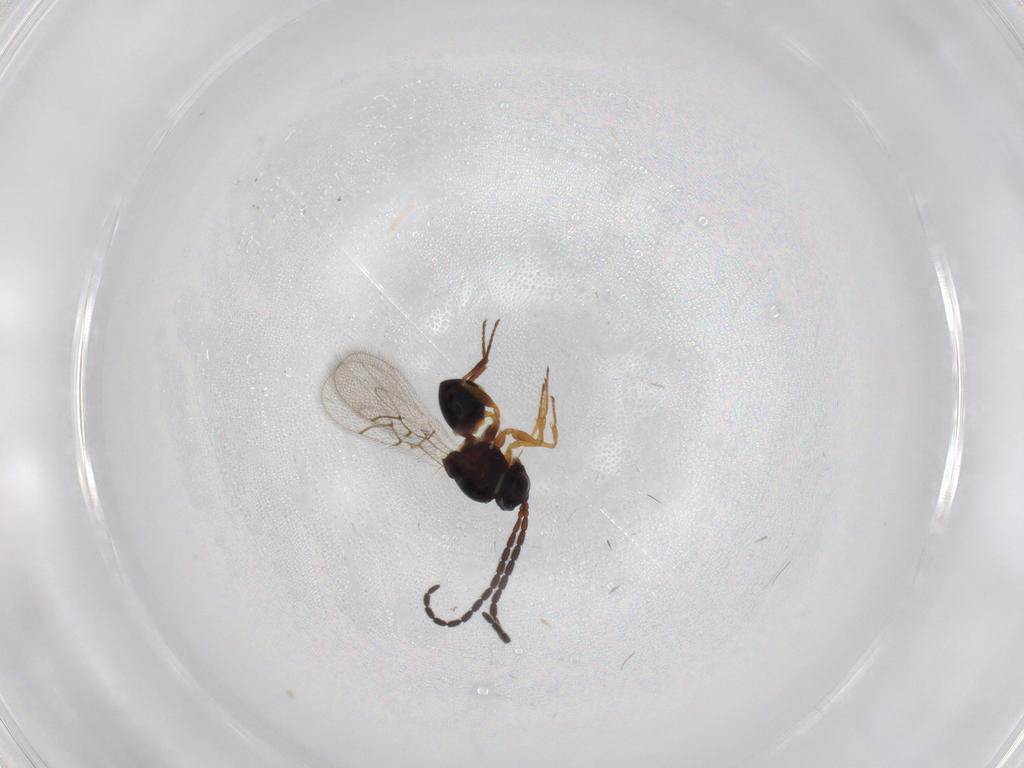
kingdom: Animalia
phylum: Arthropoda
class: Insecta
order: Hymenoptera
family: Figitidae
